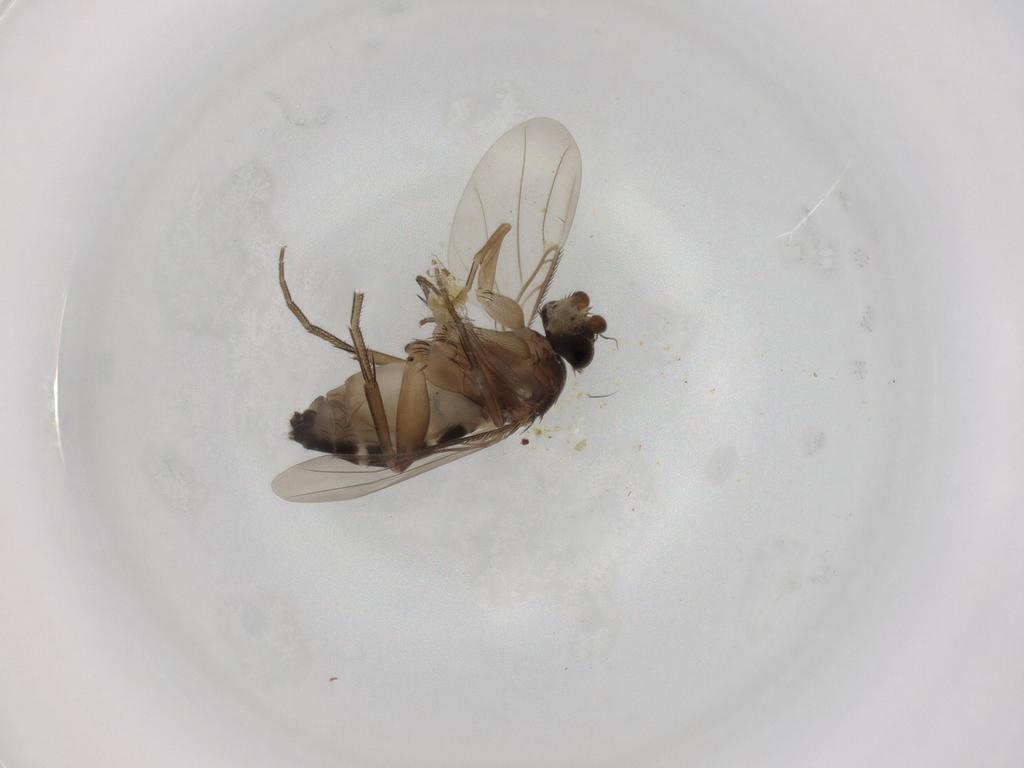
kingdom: Animalia
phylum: Arthropoda
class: Insecta
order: Diptera
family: Phoridae
